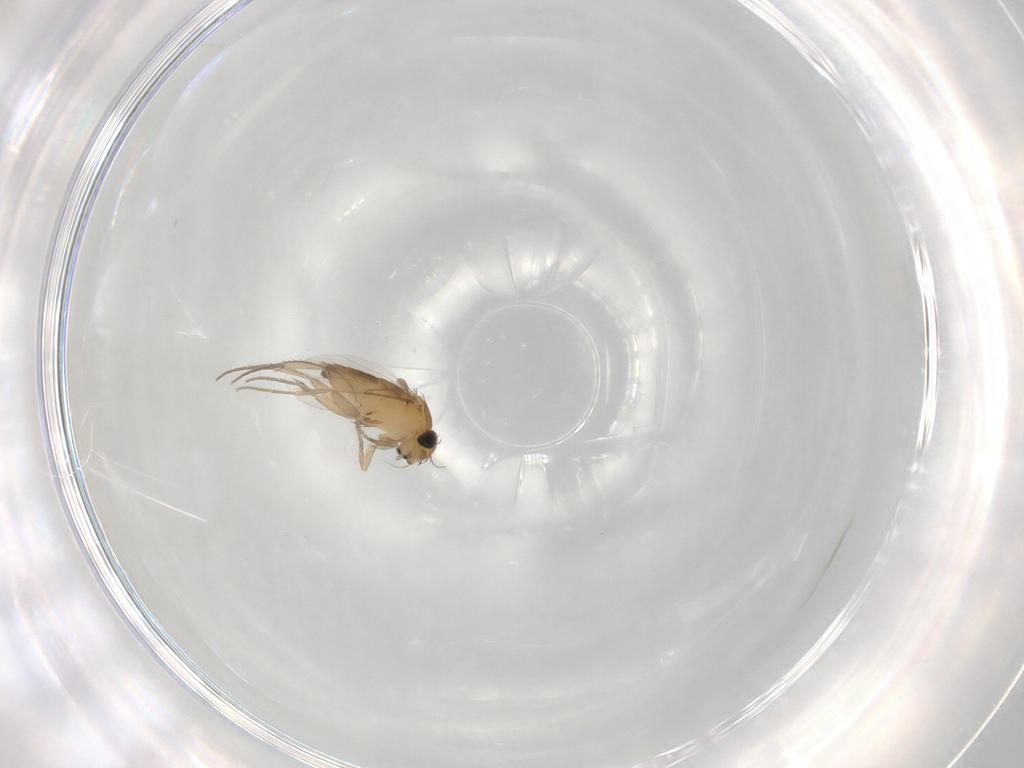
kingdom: Animalia
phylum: Arthropoda
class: Insecta
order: Diptera
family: Phoridae
